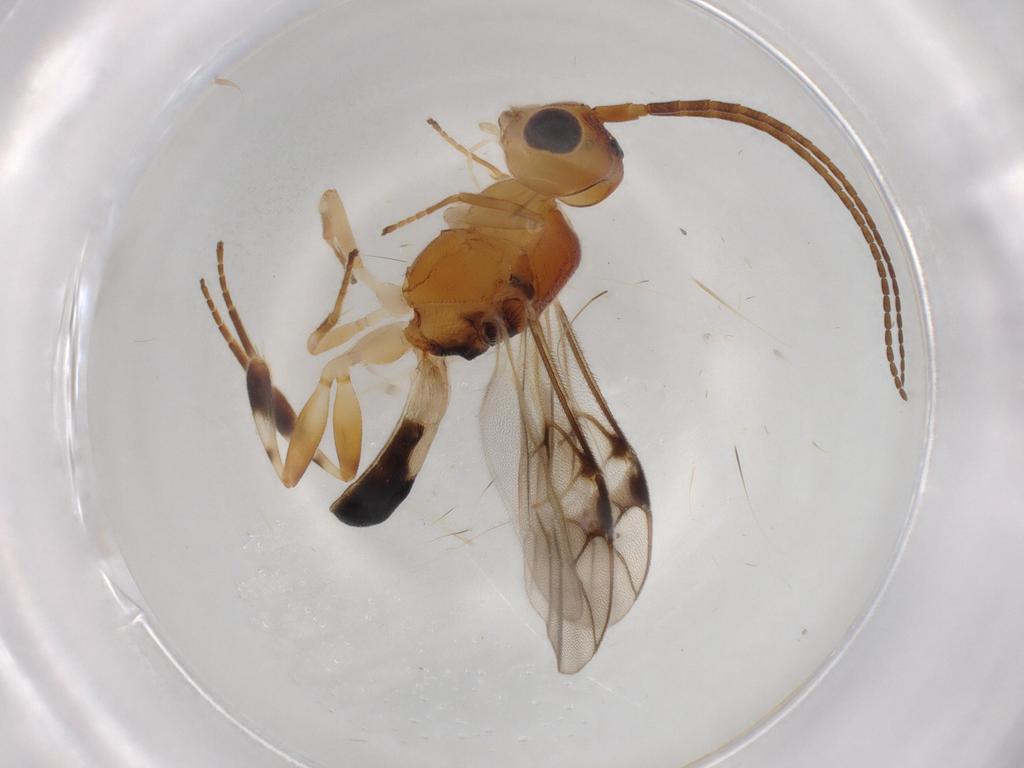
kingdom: Animalia
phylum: Arthropoda
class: Insecta
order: Hymenoptera
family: Braconidae
